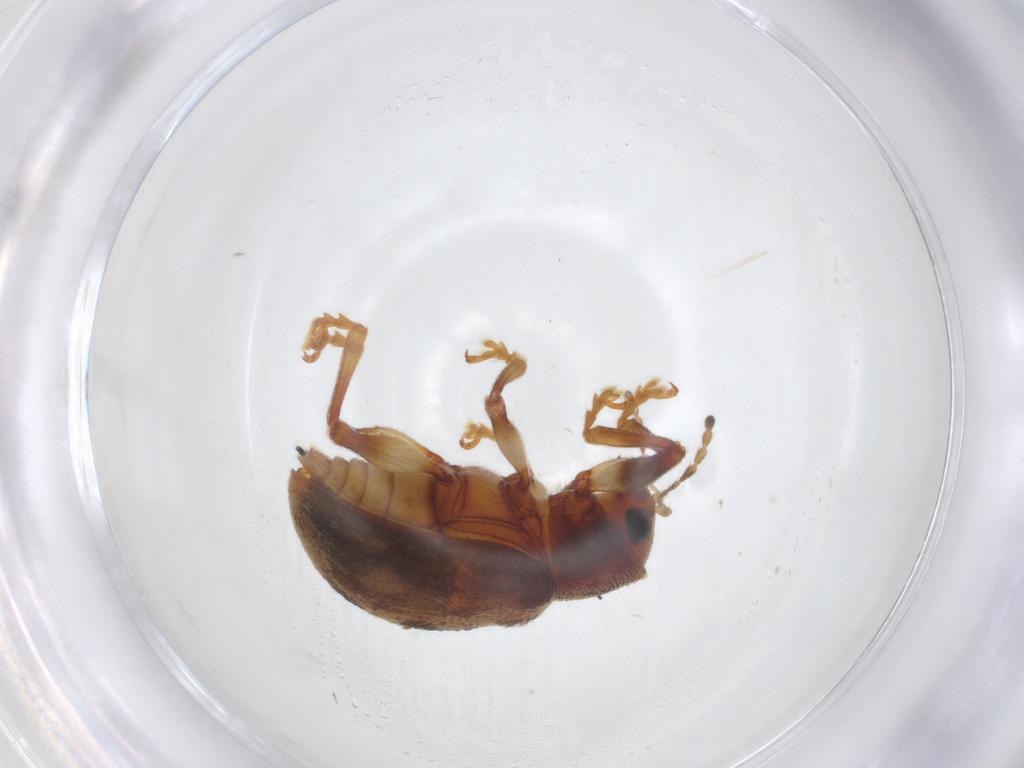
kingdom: Animalia
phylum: Arthropoda
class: Insecta
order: Coleoptera
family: Chrysomelidae
